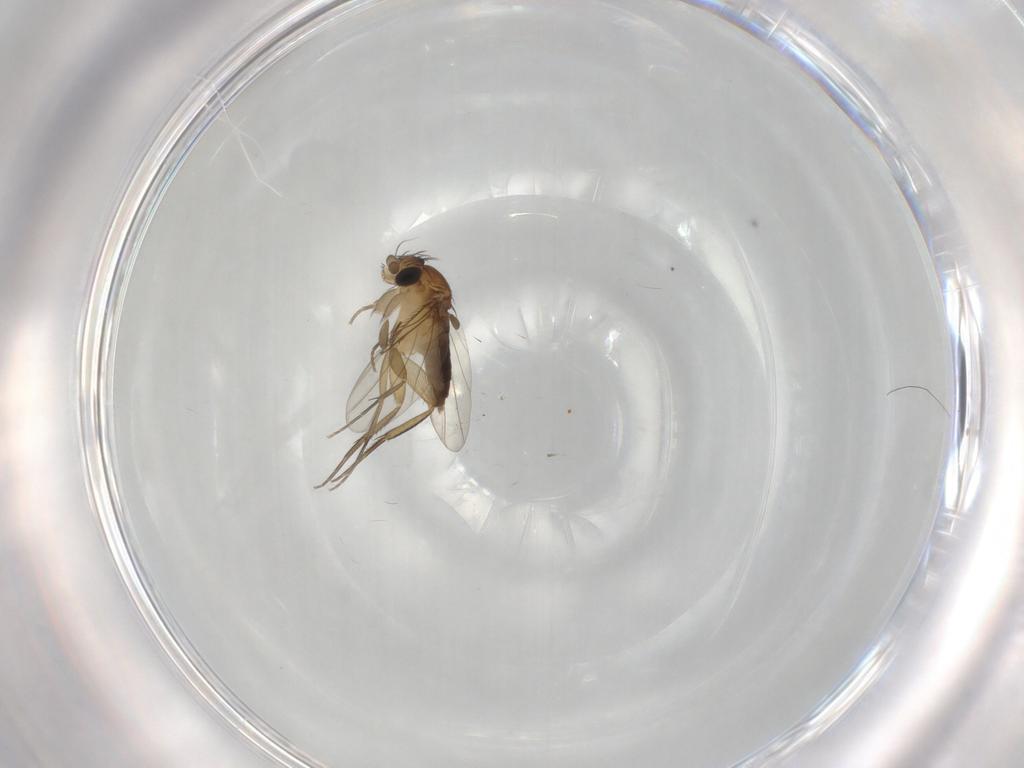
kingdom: Animalia
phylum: Arthropoda
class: Insecta
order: Diptera
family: Phoridae
